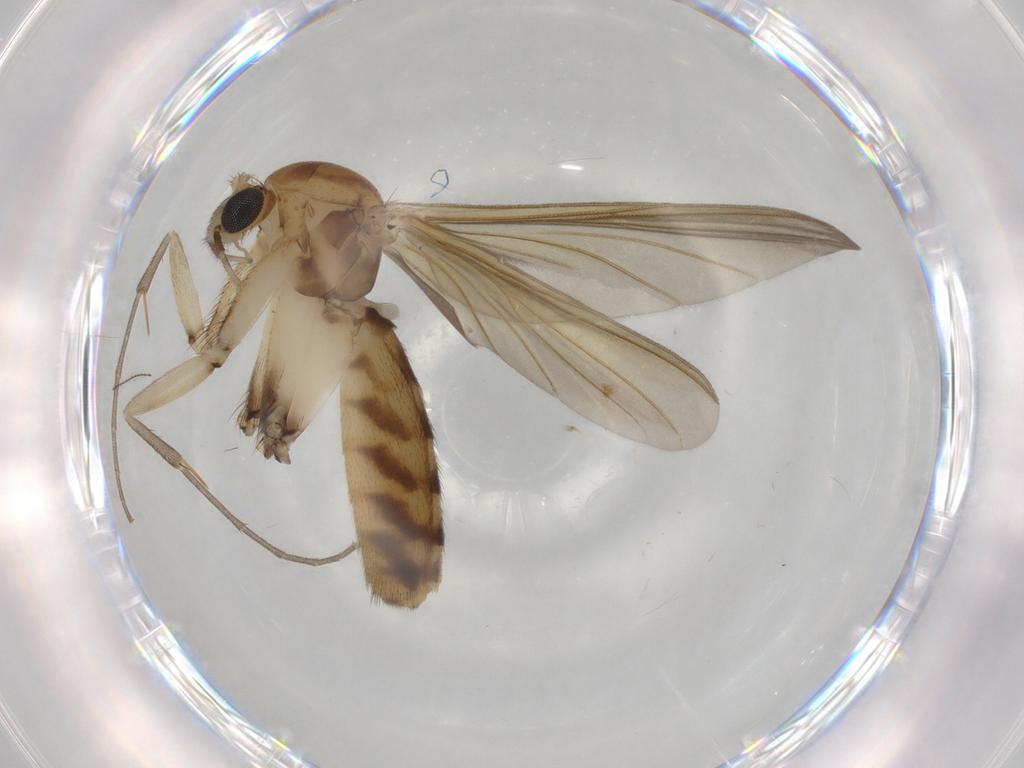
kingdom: Animalia
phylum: Arthropoda
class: Insecta
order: Diptera
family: Mycetophilidae
